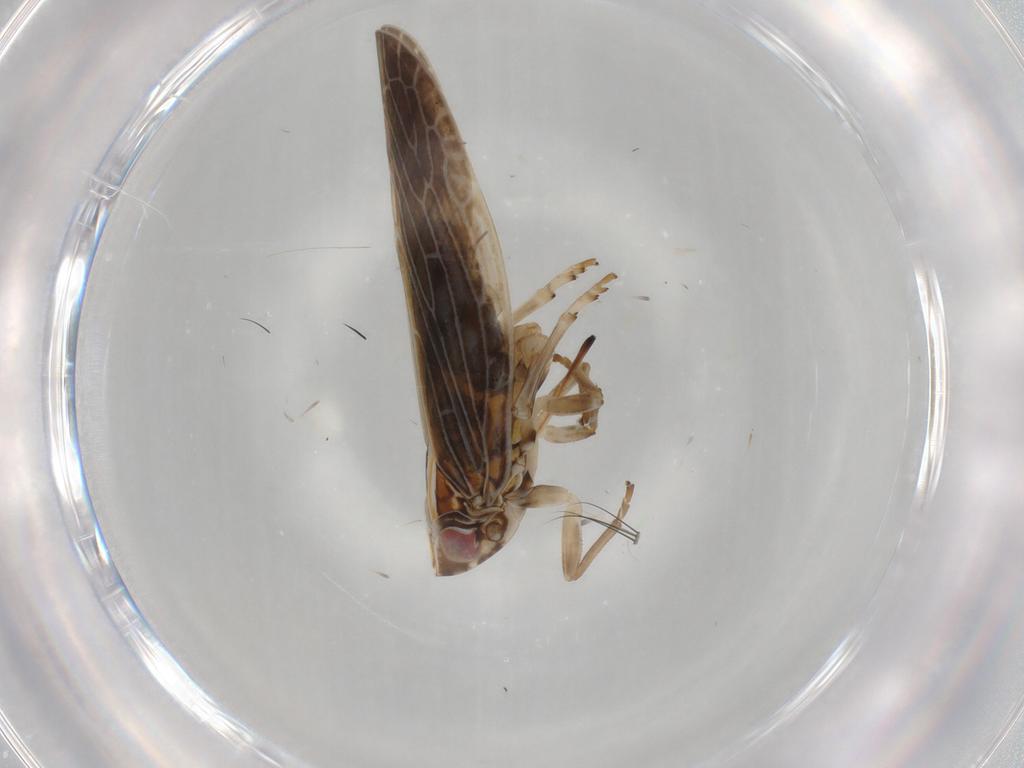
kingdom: Animalia
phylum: Arthropoda
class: Insecta
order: Hemiptera
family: Achilidae
